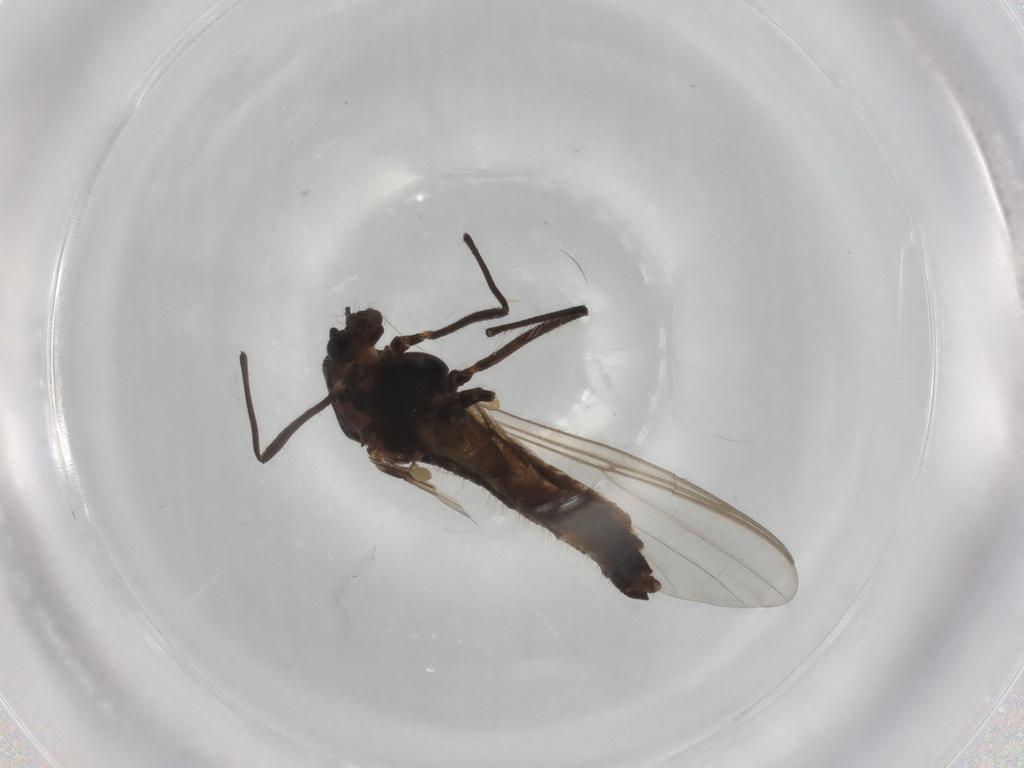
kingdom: Animalia
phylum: Arthropoda
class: Insecta
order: Diptera
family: Chironomidae
